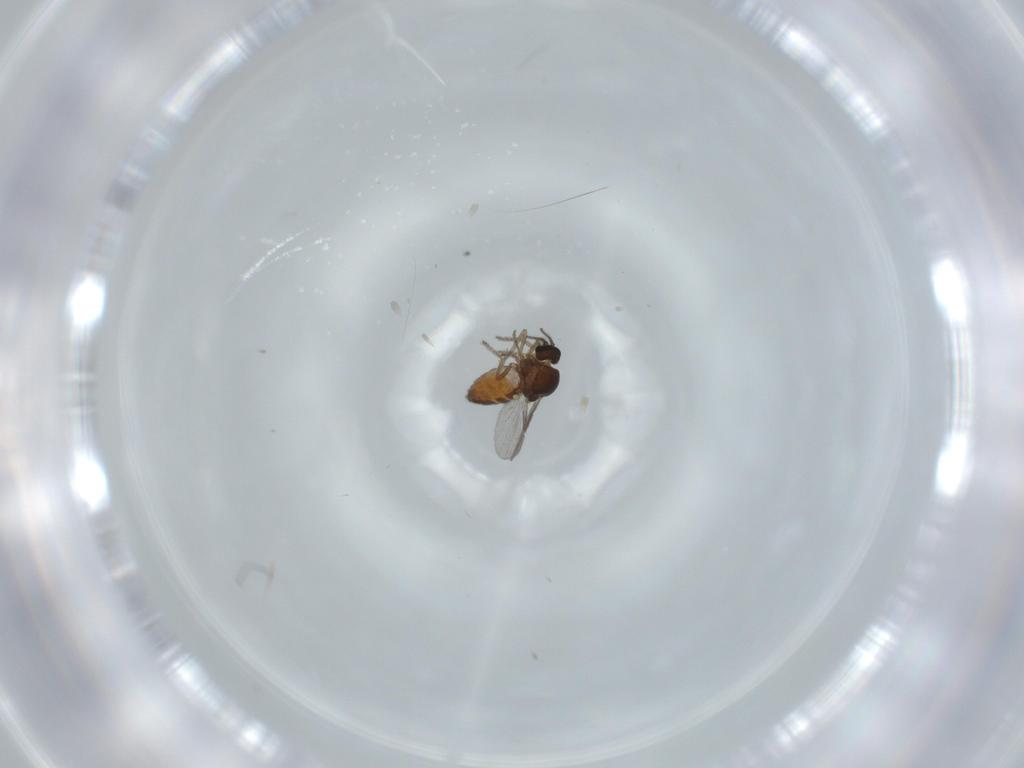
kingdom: Animalia
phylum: Arthropoda
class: Insecta
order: Diptera
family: Ceratopogonidae
